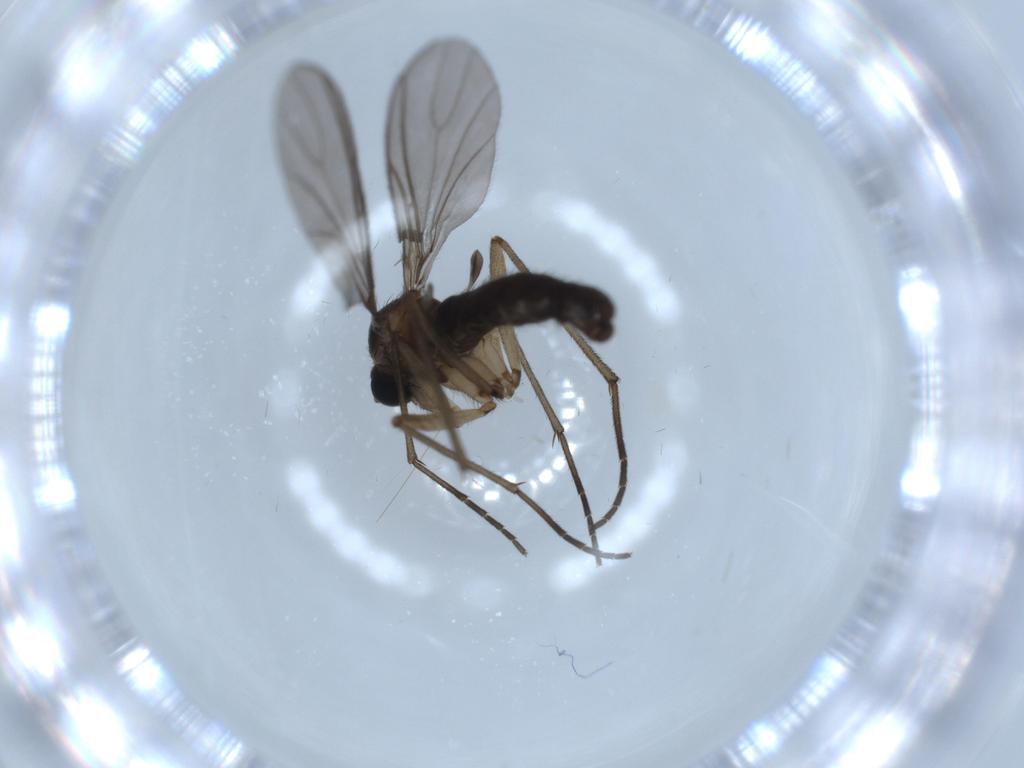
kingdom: Animalia
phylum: Arthropoda
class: Insecta
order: Diptera
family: Sciaridae
